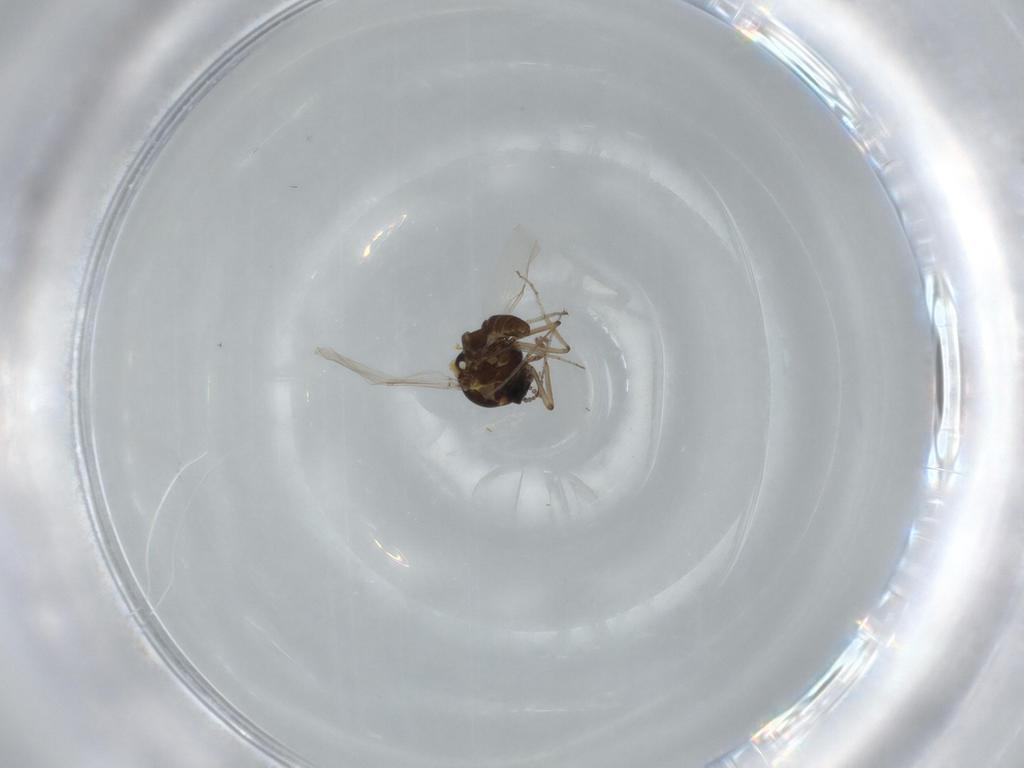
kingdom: Animalia
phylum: Arthropoda
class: Insecta
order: Diptera
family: Ceratopogonidae
